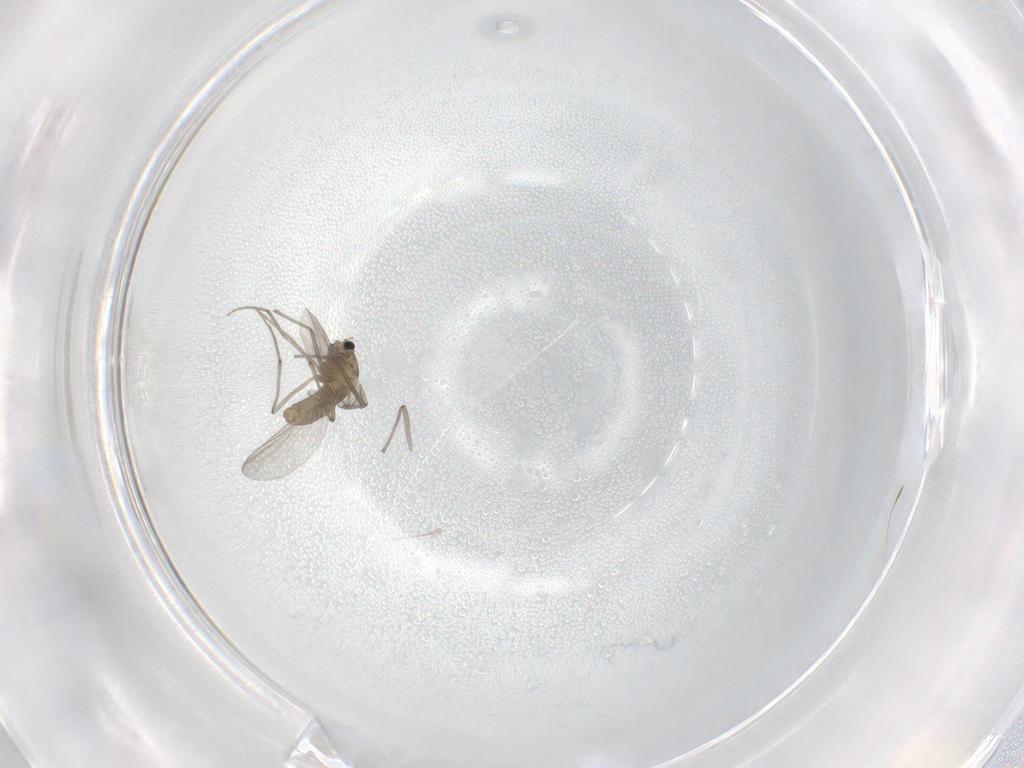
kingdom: Animalia
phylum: Arthropoda
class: Insecta
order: Diptera
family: Chironomidae
